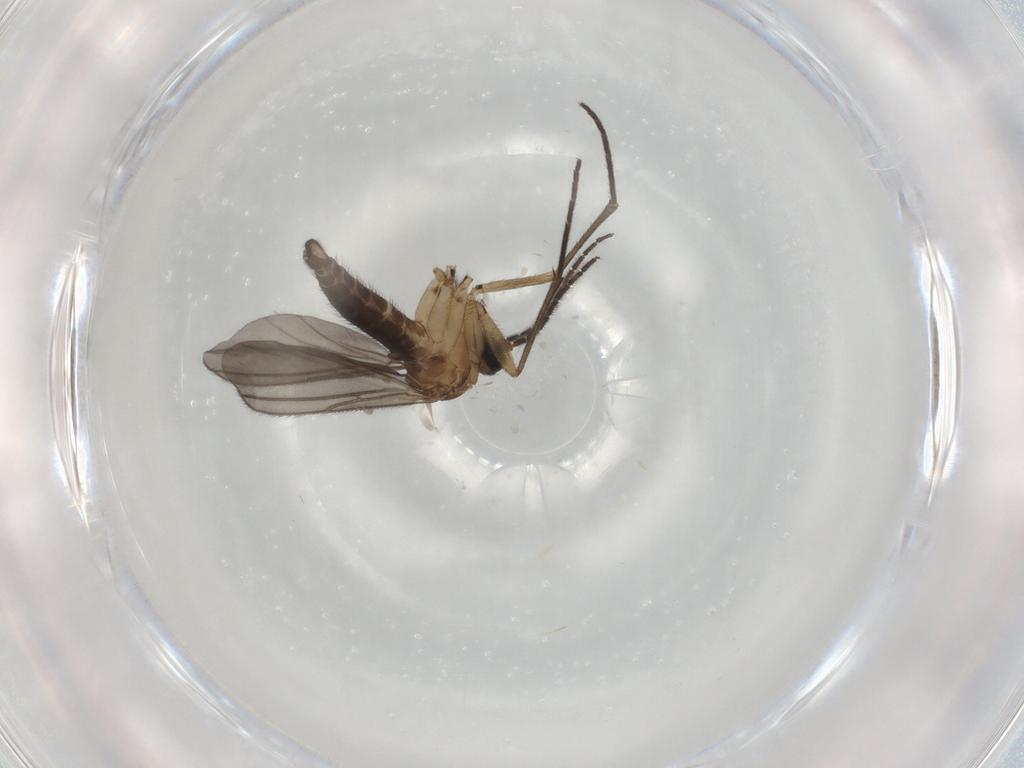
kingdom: Animalia
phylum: Arthropoda
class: Insecta
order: Diptera
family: Sciaridae
